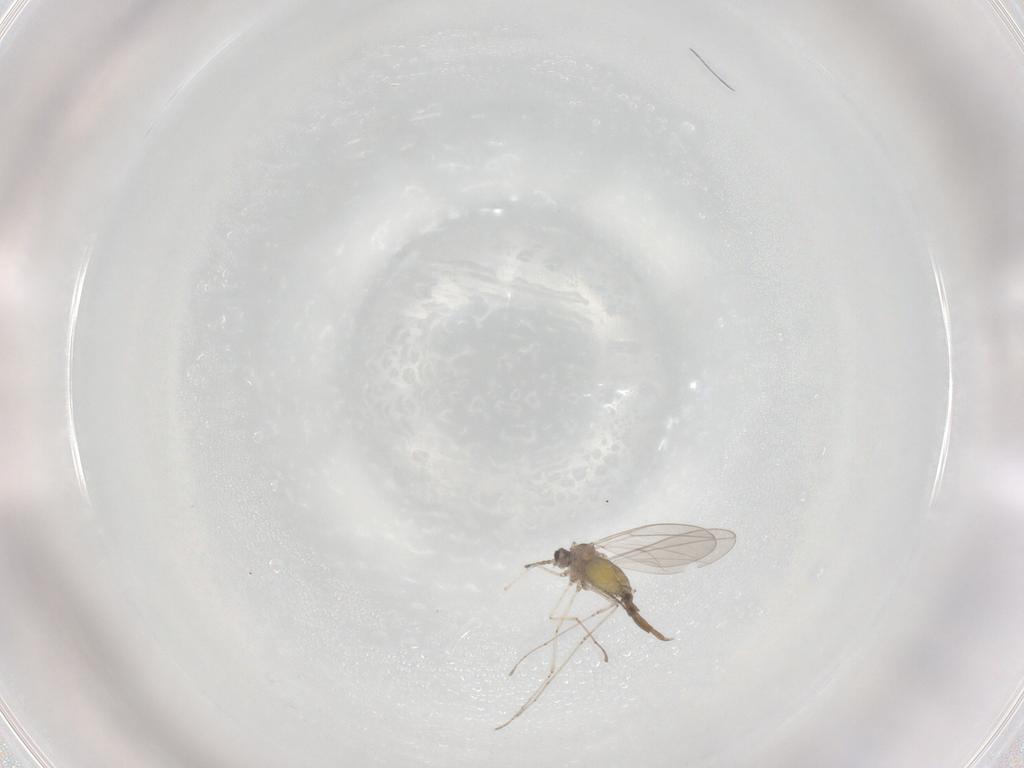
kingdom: Animalia
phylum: Arthropoda
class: Insecta
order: Diptera
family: Cecidomyiidae
